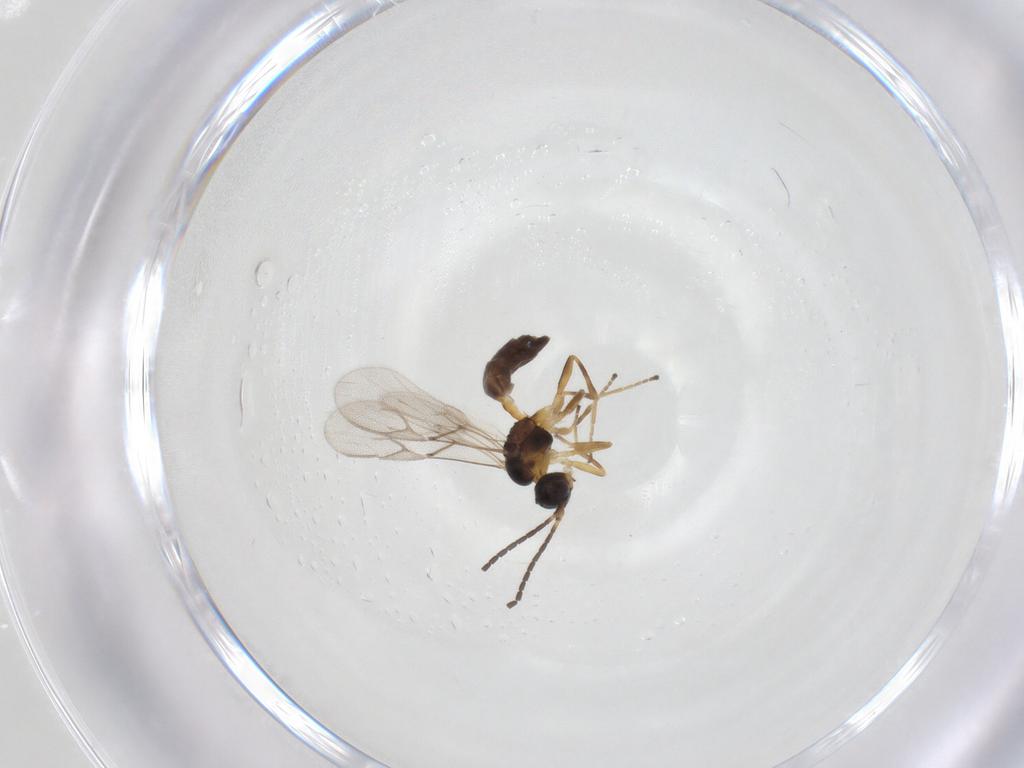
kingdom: Animalia
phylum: Arthropoda
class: Insecta
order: Hymenoptera
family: Braconidae
